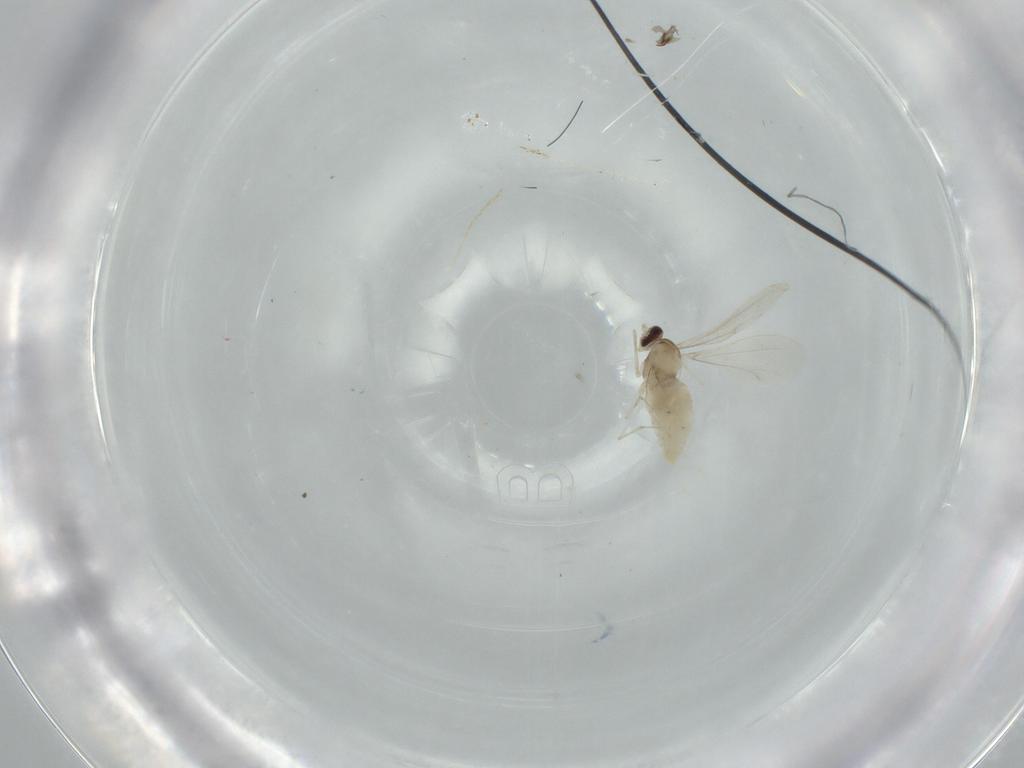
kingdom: Animalia
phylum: Arthropoda
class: Insecta
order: Diptera
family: Cecidomyiidae
